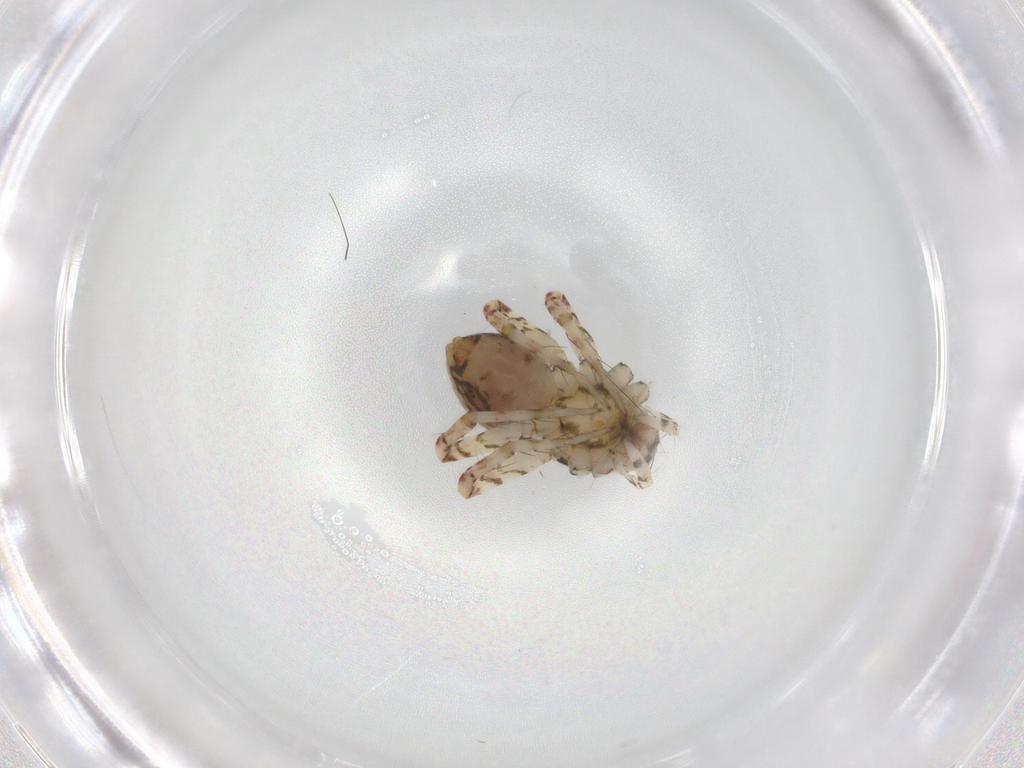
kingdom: Animalia
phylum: Arthropoda
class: Arachnida
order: Araneae
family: Pisauridae
